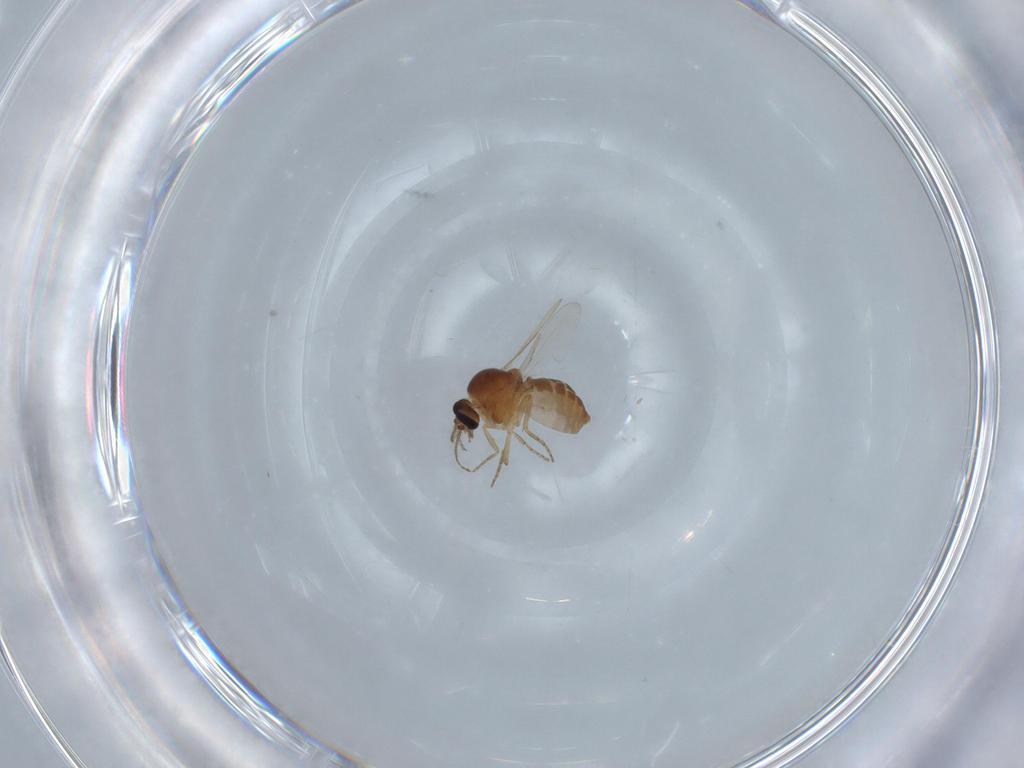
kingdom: Animalia
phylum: Arthropoda
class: Insecta
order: Diptera
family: Ceratopogonidae
